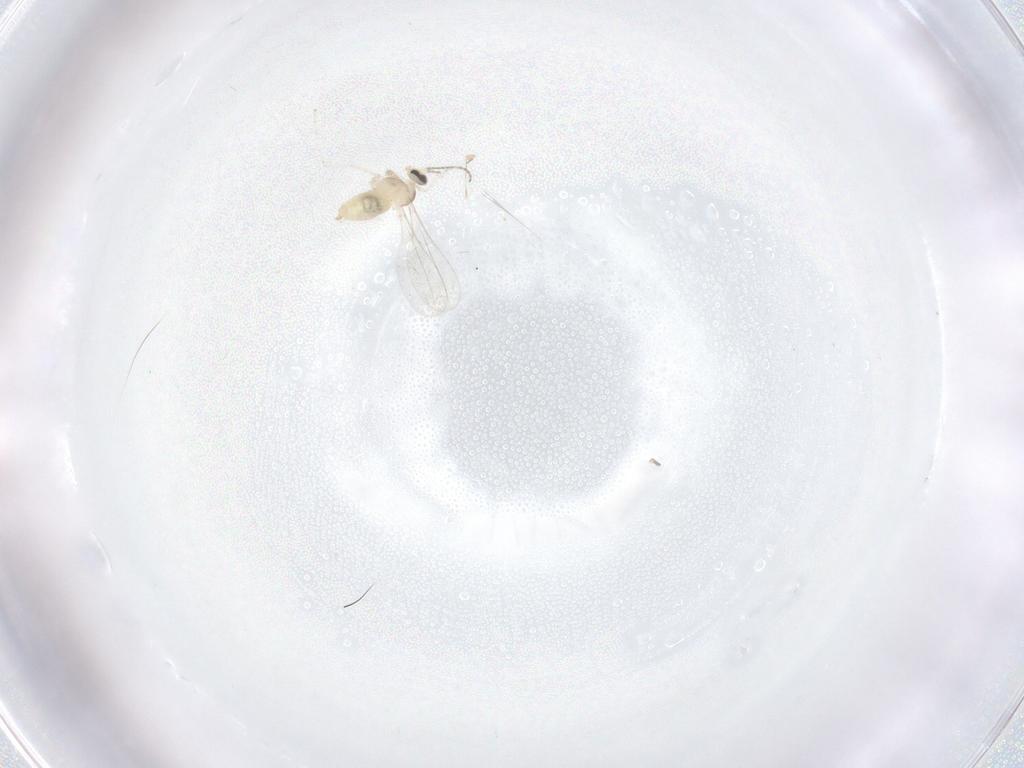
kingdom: Animalia
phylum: Arthropoda
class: Insecta
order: Diptera
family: Cecidomyiidae
